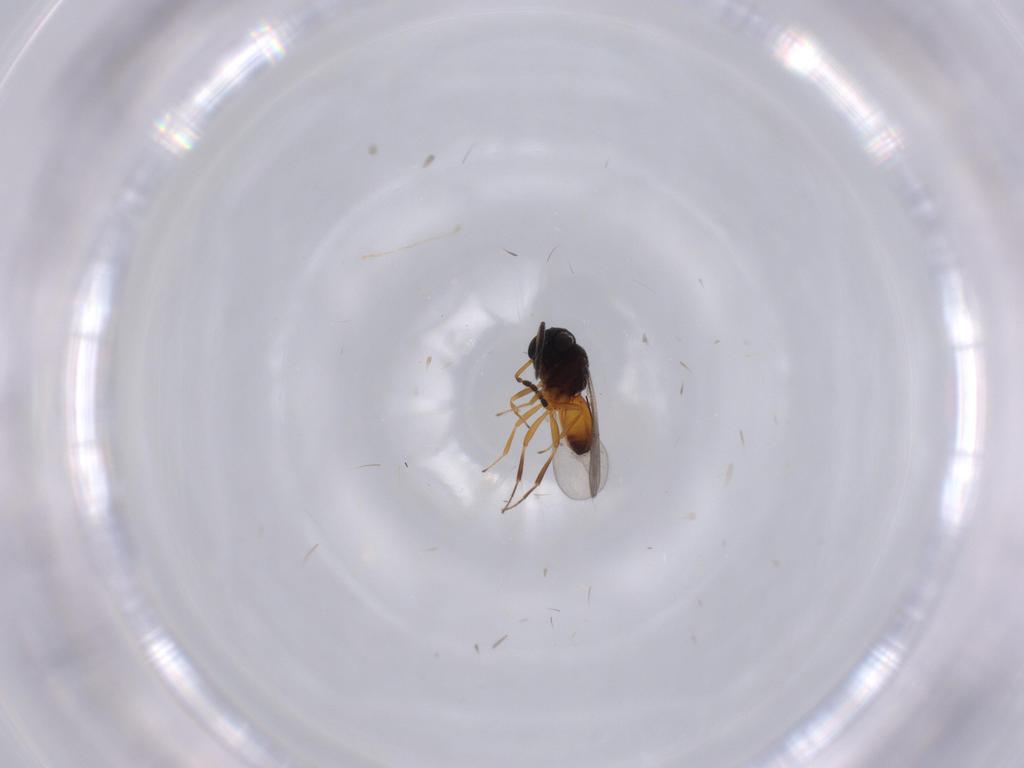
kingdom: Animalia
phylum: Arthropoda
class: Insecta
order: Hymenoptera
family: Scelionidae
